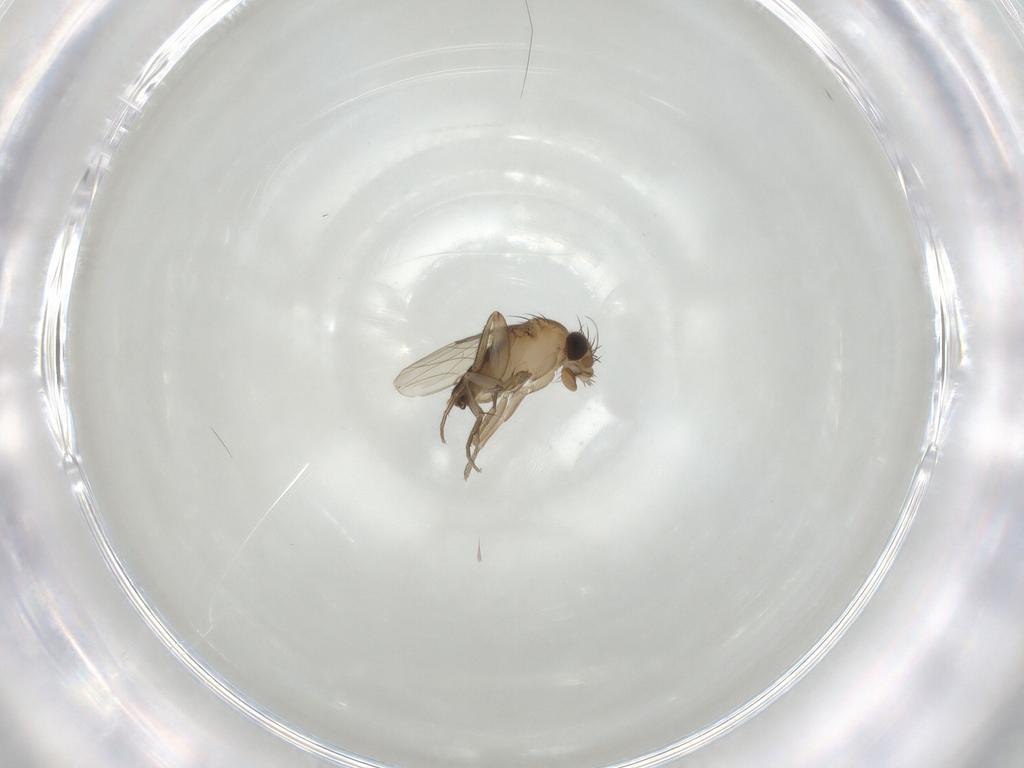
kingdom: Animalia
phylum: Arthropoda
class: Insecta
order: Diptera
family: Phoridae
